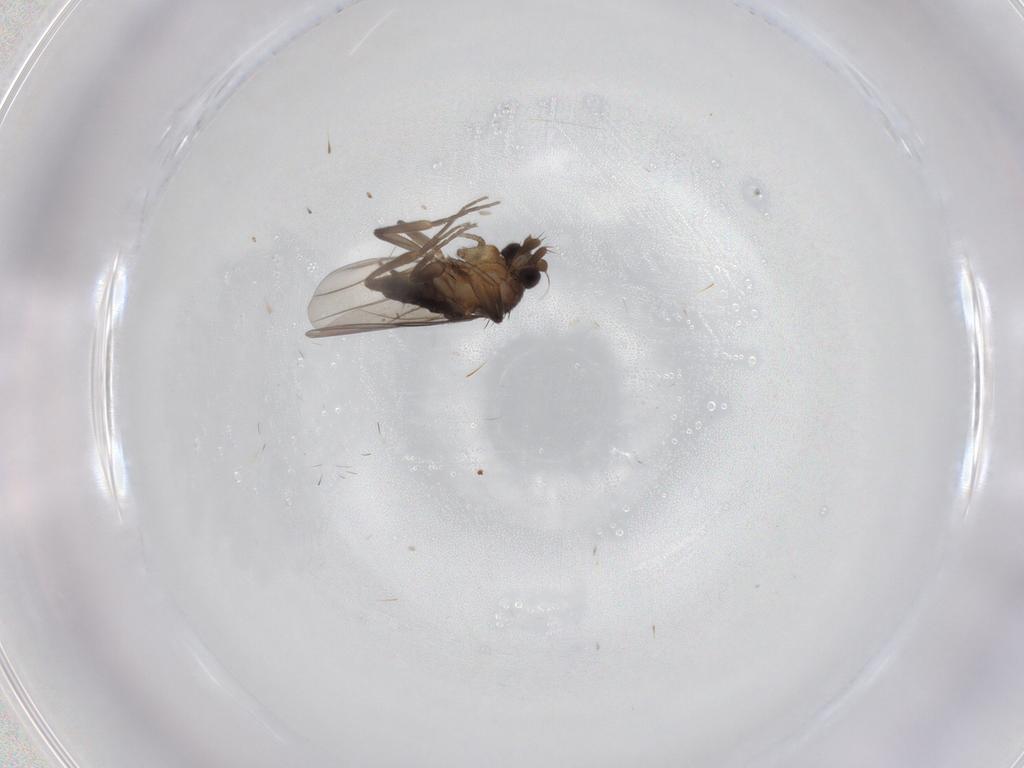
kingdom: Animalia
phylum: Arthropoda
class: Insecta
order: Diptera
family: Phoridae
